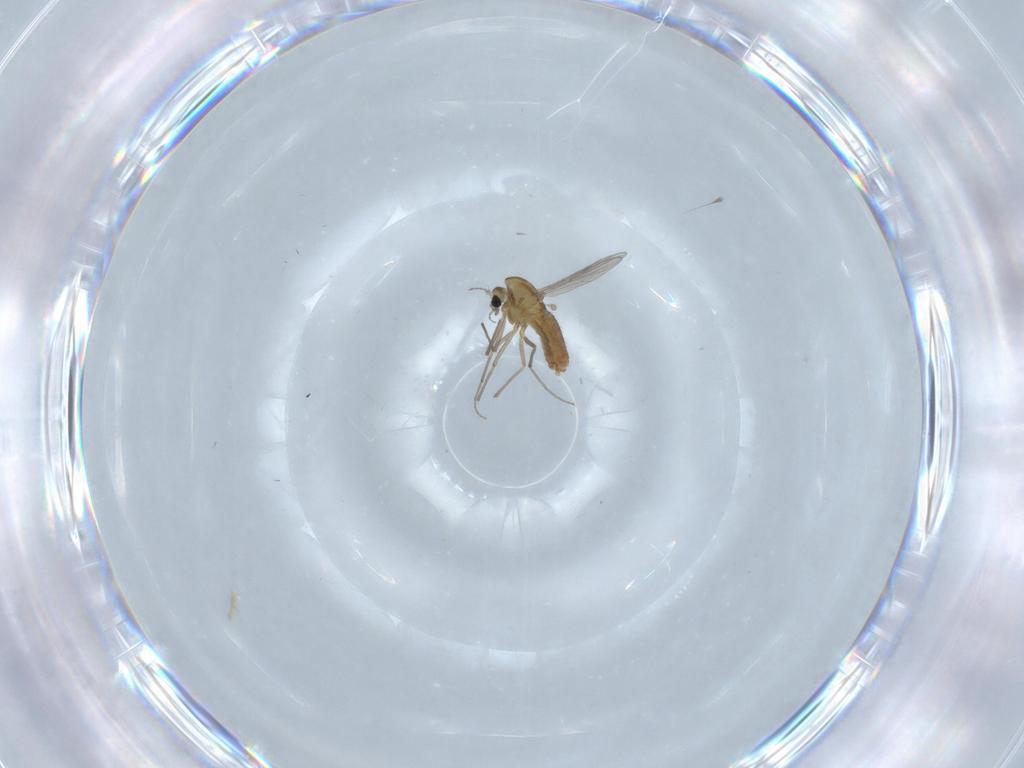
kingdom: Animalia
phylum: Arthropoda
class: Insecta
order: Diptera
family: Chironomidae
